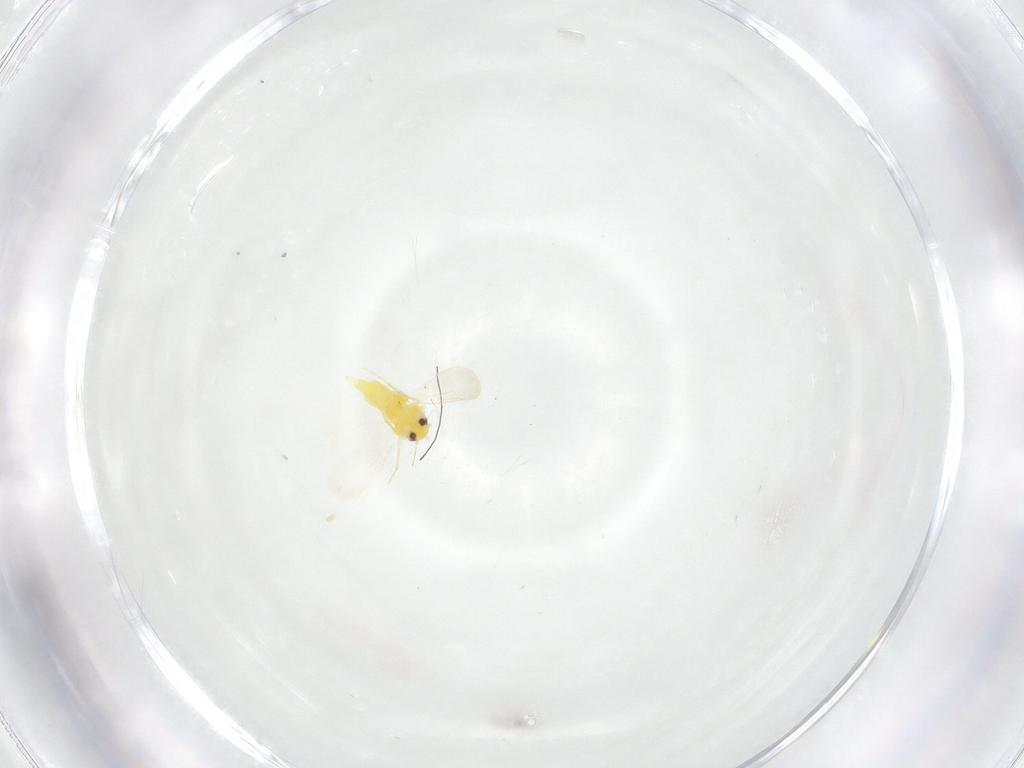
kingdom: Animalia
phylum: Arthropoda
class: Insecta
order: Hemiptera
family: Aleyrodidae
